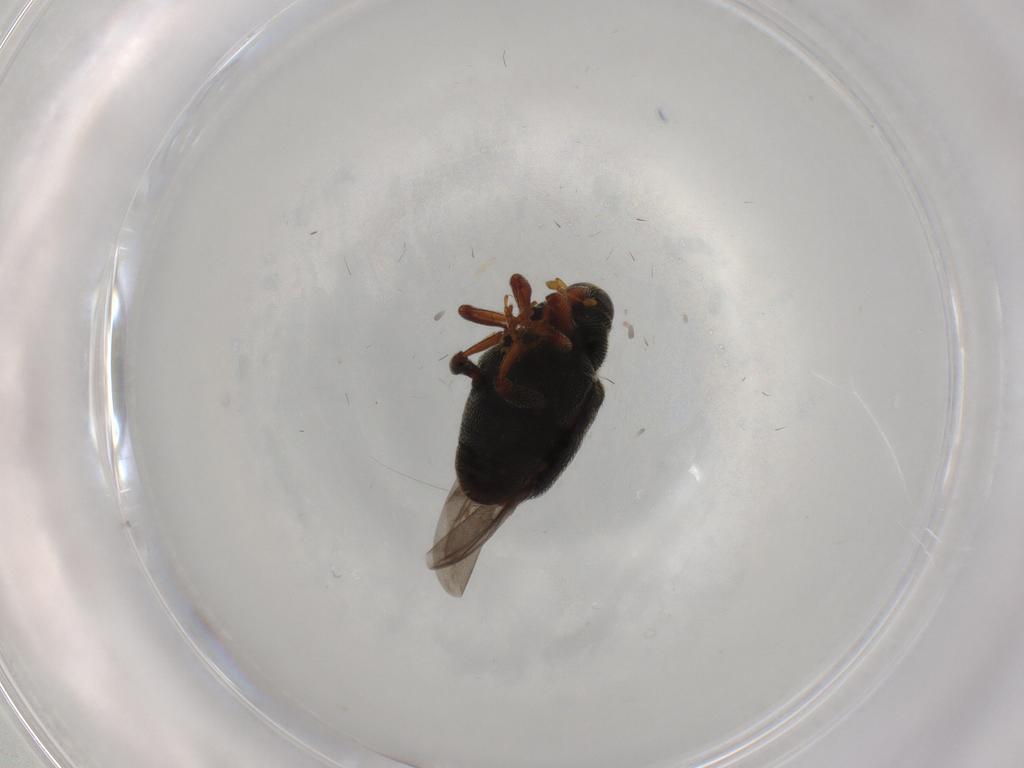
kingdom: Animalia
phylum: Arthropoda
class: Insecta
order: Coleoptera
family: Curculionidae
